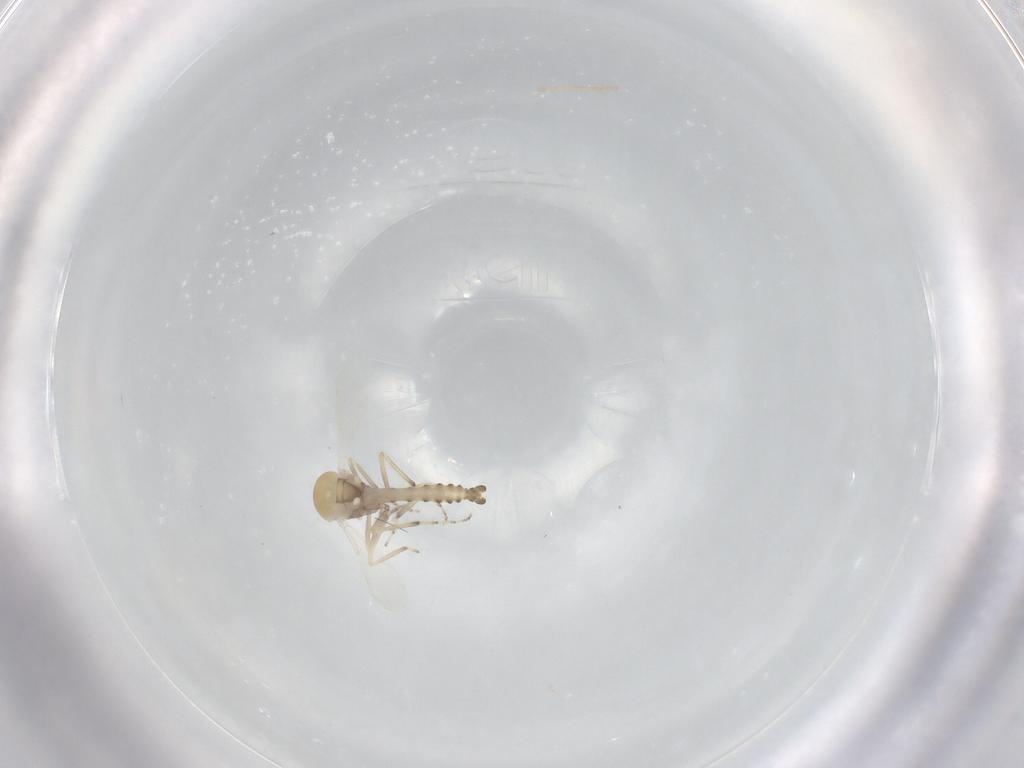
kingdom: Animalia
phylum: Arthropoda
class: Insecta
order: Diptera
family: Ceratopogonidae
